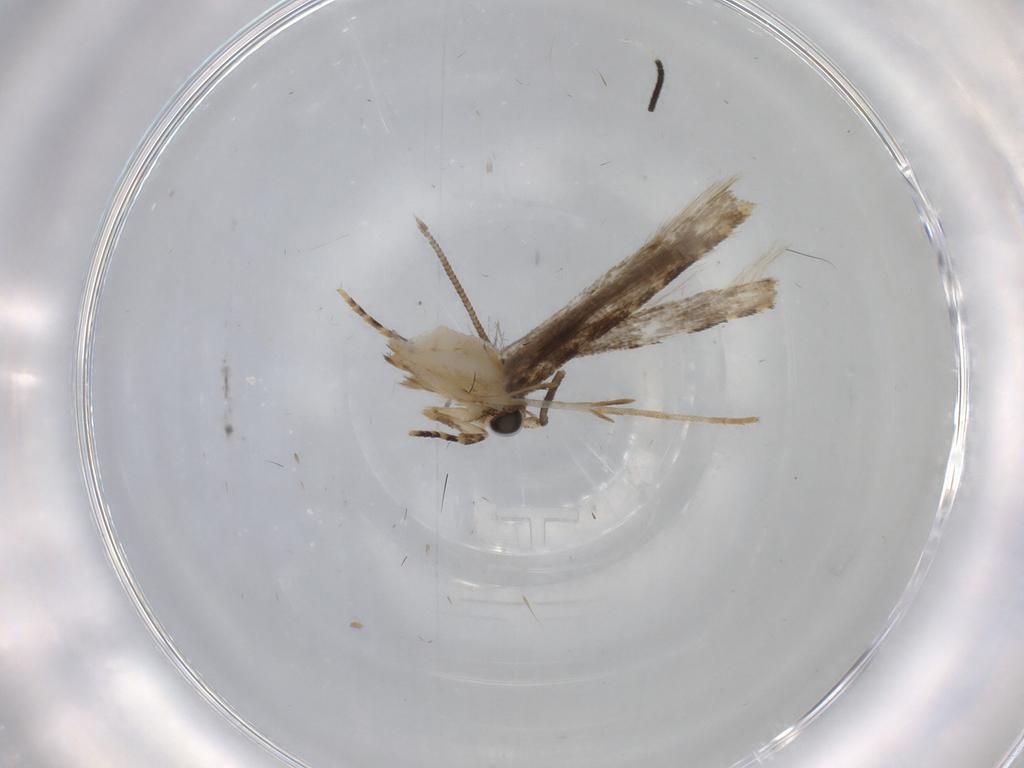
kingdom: Animalia
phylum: Arthropoda
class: Insecta
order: Lepidoptera
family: Tineidae
